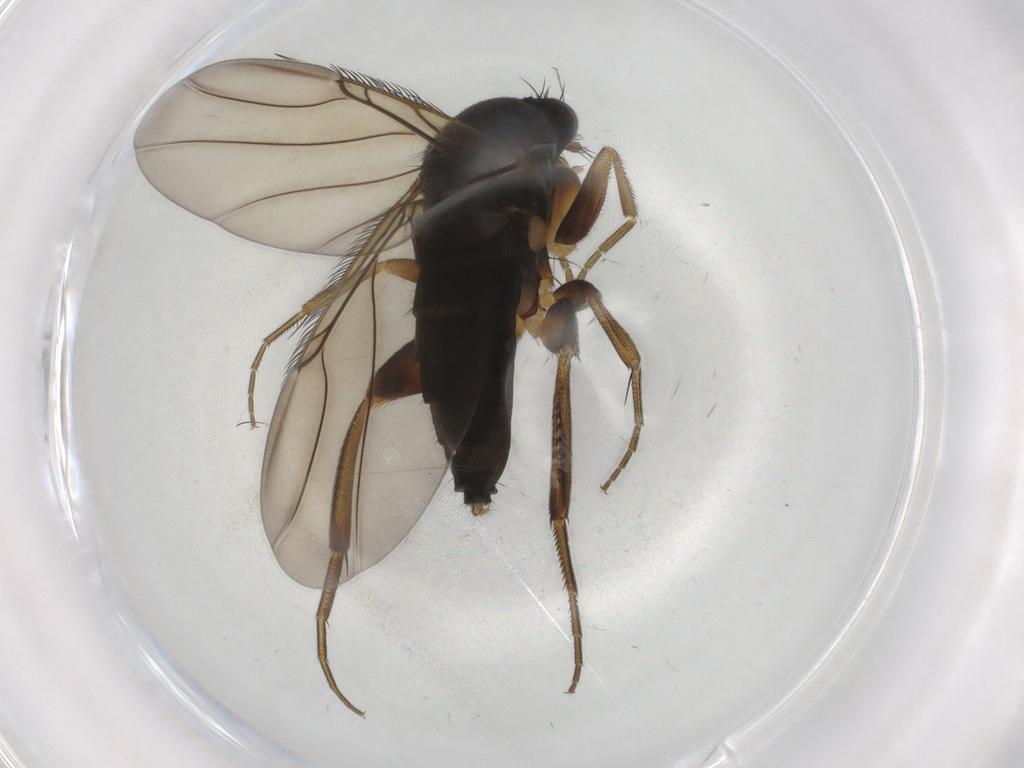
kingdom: Animalia
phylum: Arthropoda
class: Insecta
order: Diptera
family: Phoridae
